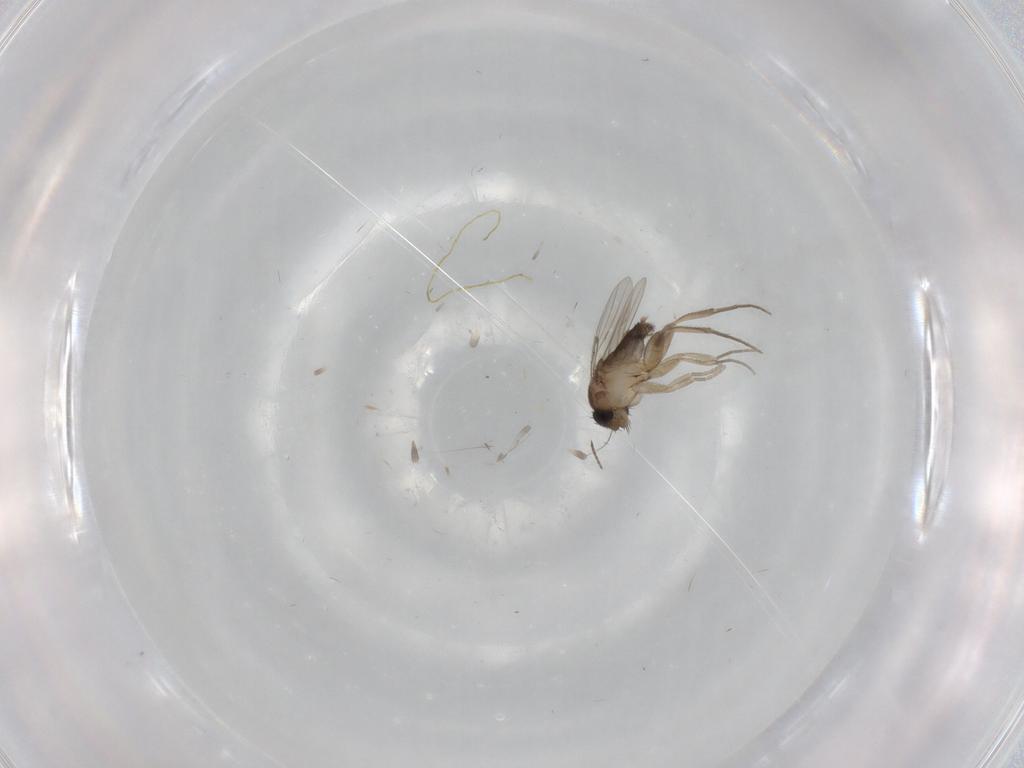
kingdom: Animalia
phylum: Arthropoda
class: Insecta
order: Diptera
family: Phoridae
